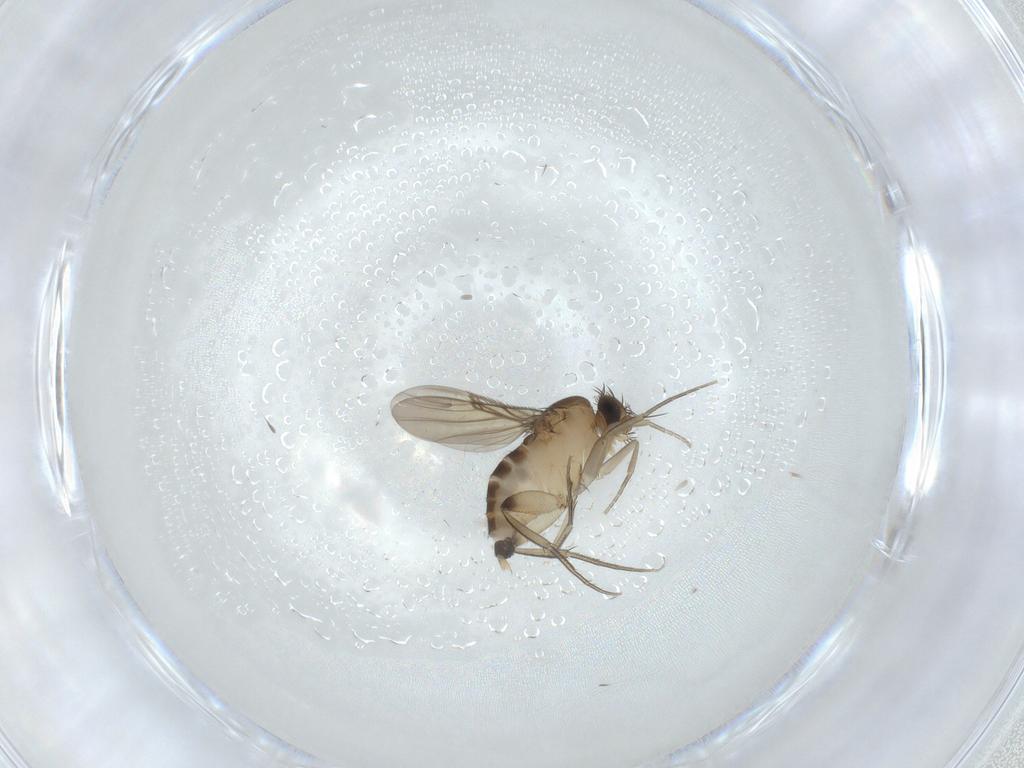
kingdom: Animalia
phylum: Arthropoda
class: Insecta
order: Diptera
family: Phoridae
